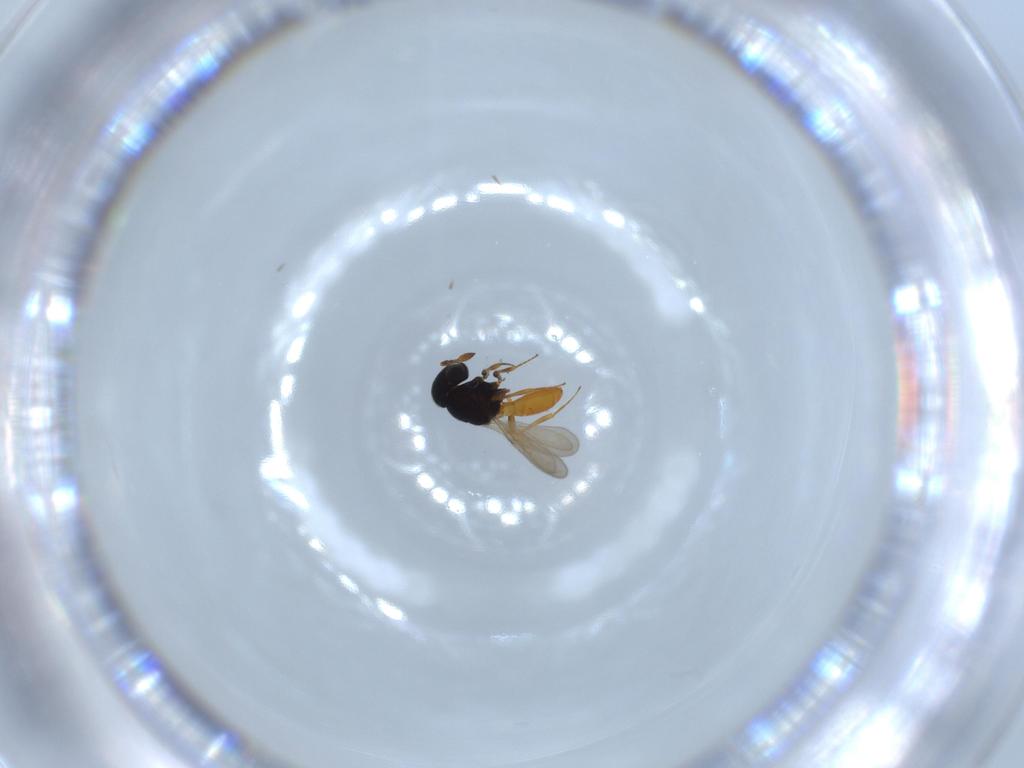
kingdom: Animalia
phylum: Arthropoda
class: Insecta
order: Hymenoptera
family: Scelionidae
